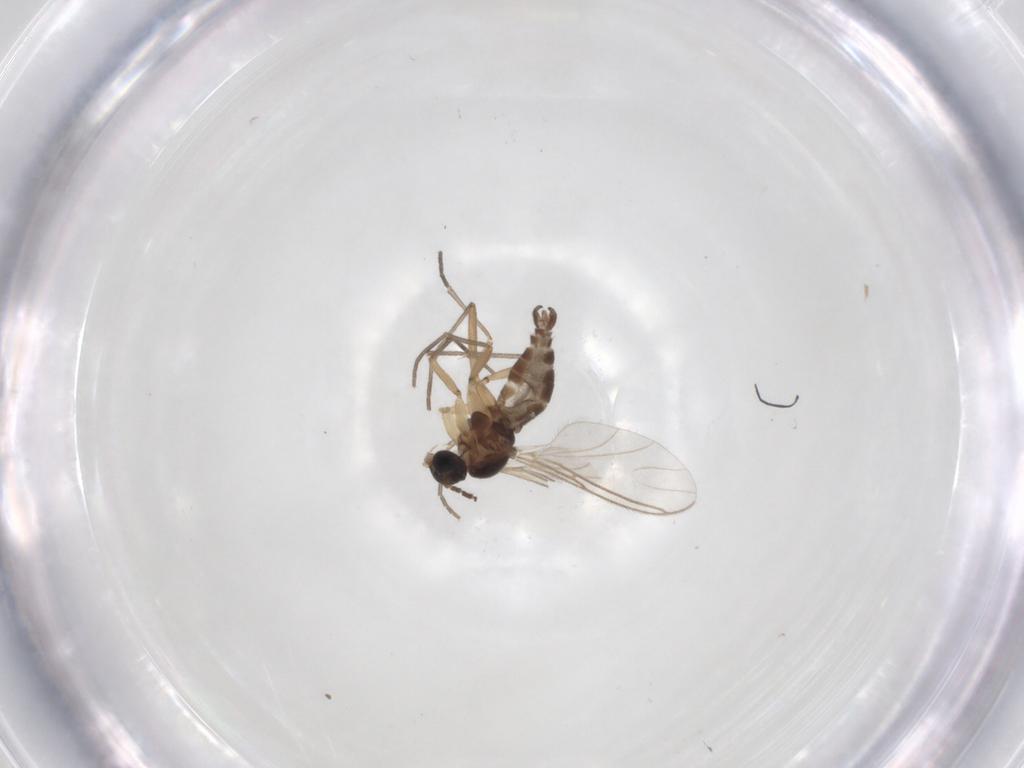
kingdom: Animalia
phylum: Arthropoda
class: Insecta
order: Diptera
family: Sciaridae
